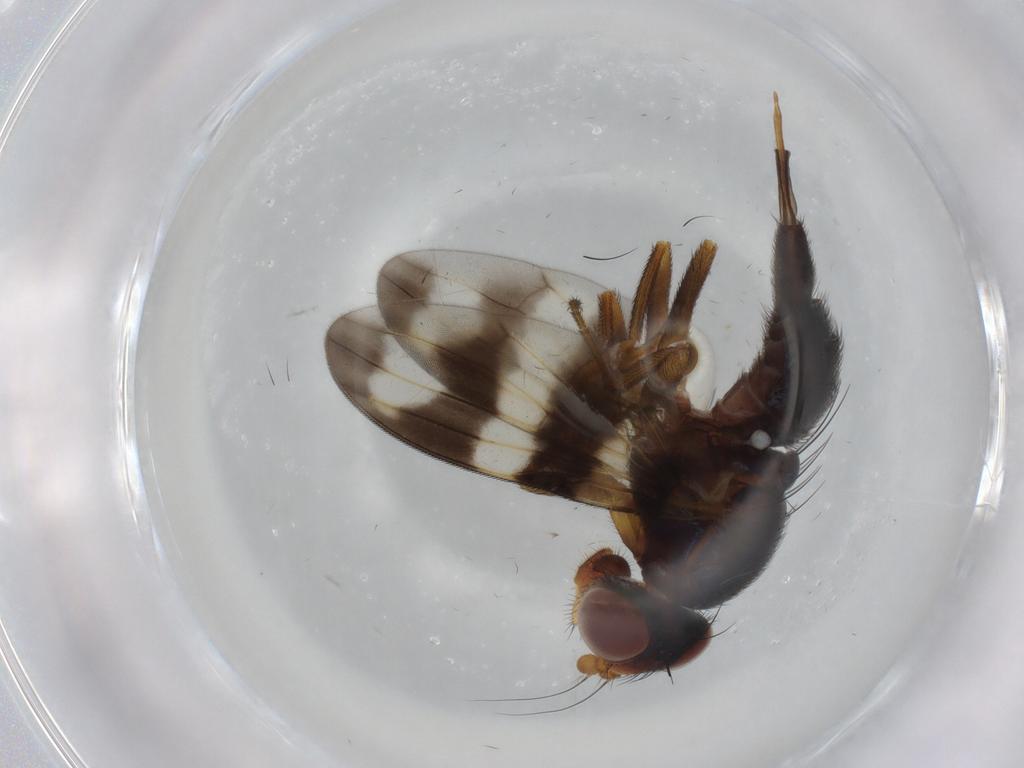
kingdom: Animalia
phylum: Arthropoda
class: Insecta
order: Diptera
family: Ulidiidae
